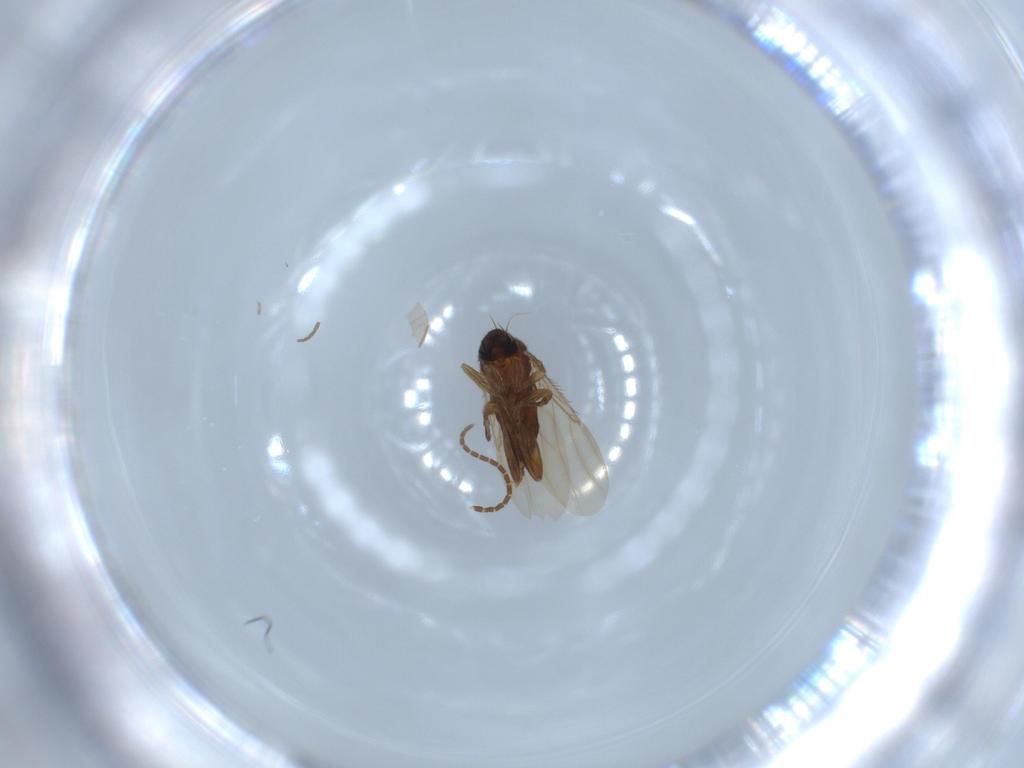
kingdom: Animalia
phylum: Arthropoda
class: Insecta
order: Diptera
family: Phoridae
